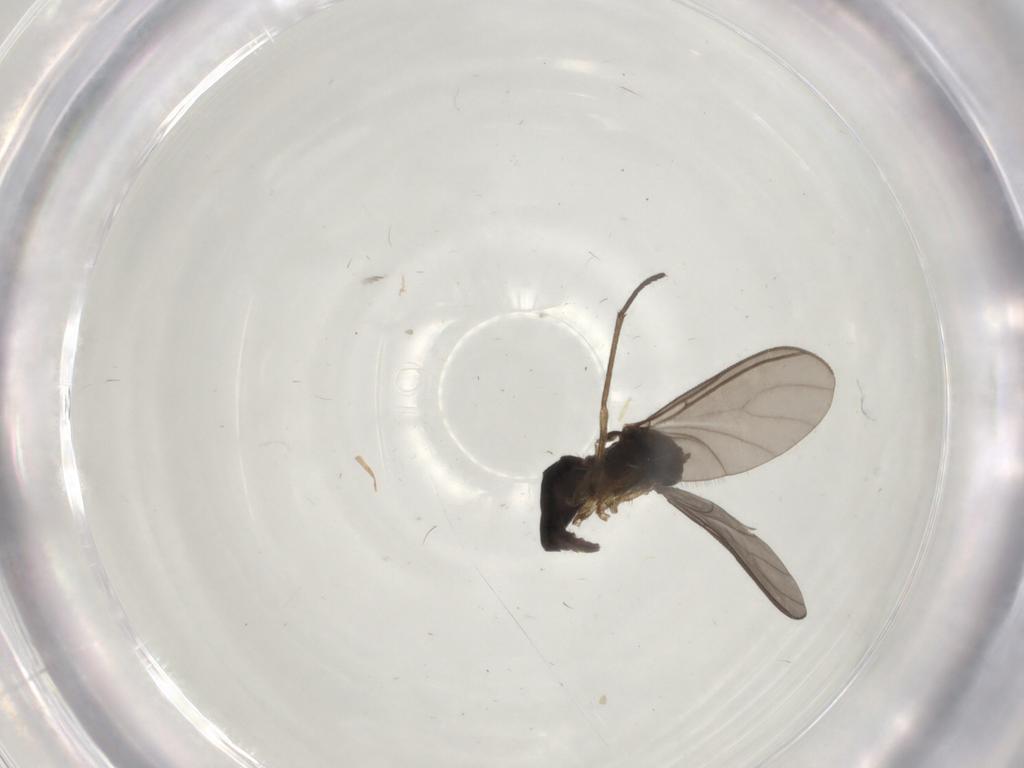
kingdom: Animalia
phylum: Arthropoda
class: Insecta
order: Diptera
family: Sciaridae
